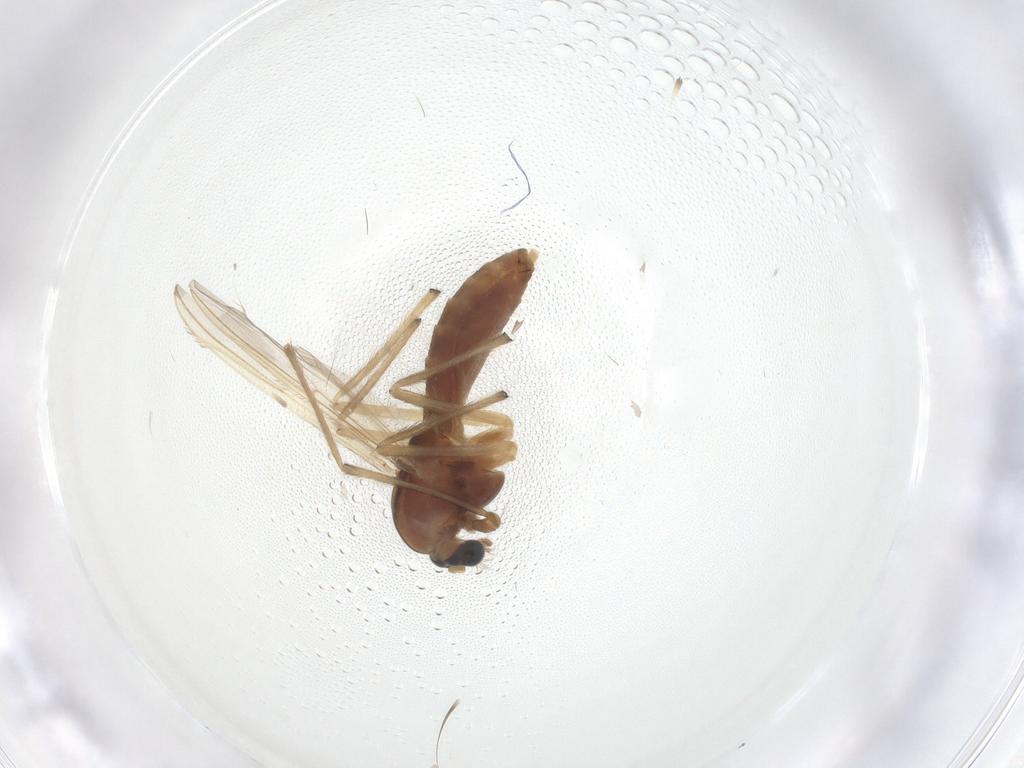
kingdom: Animalia
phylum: Arthropoda
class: Insecta
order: Diptera
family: Chironomidae
